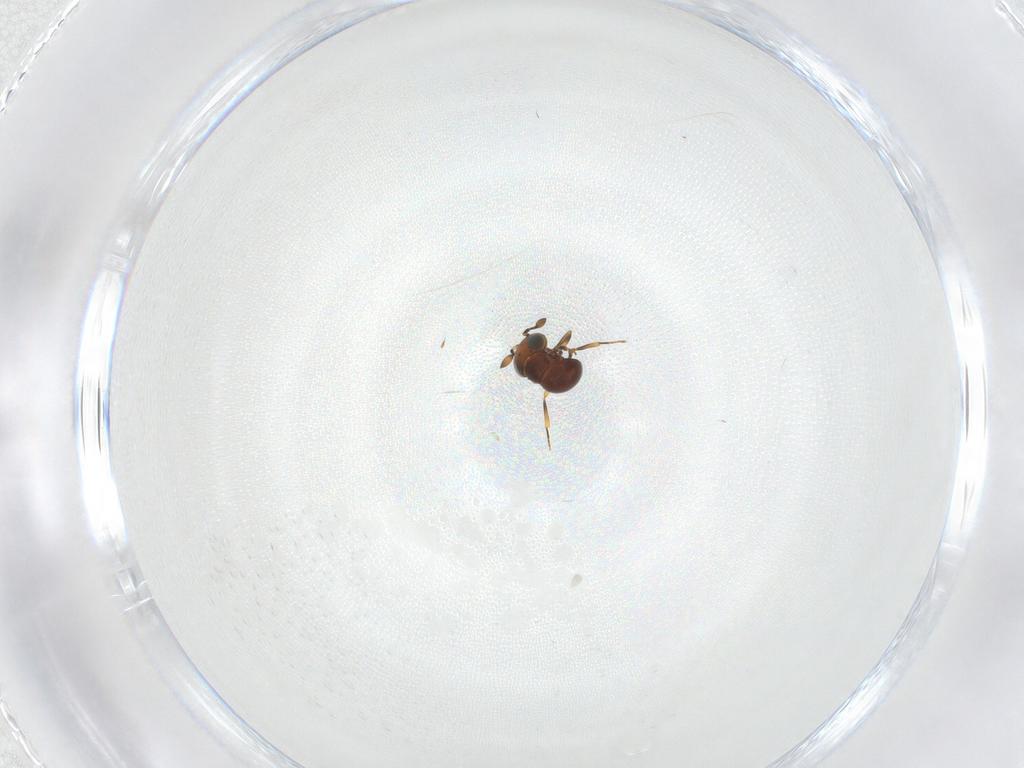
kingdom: Animalia
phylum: Arthropoda
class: Insecta
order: Hymenoptera
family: Scelionidae
